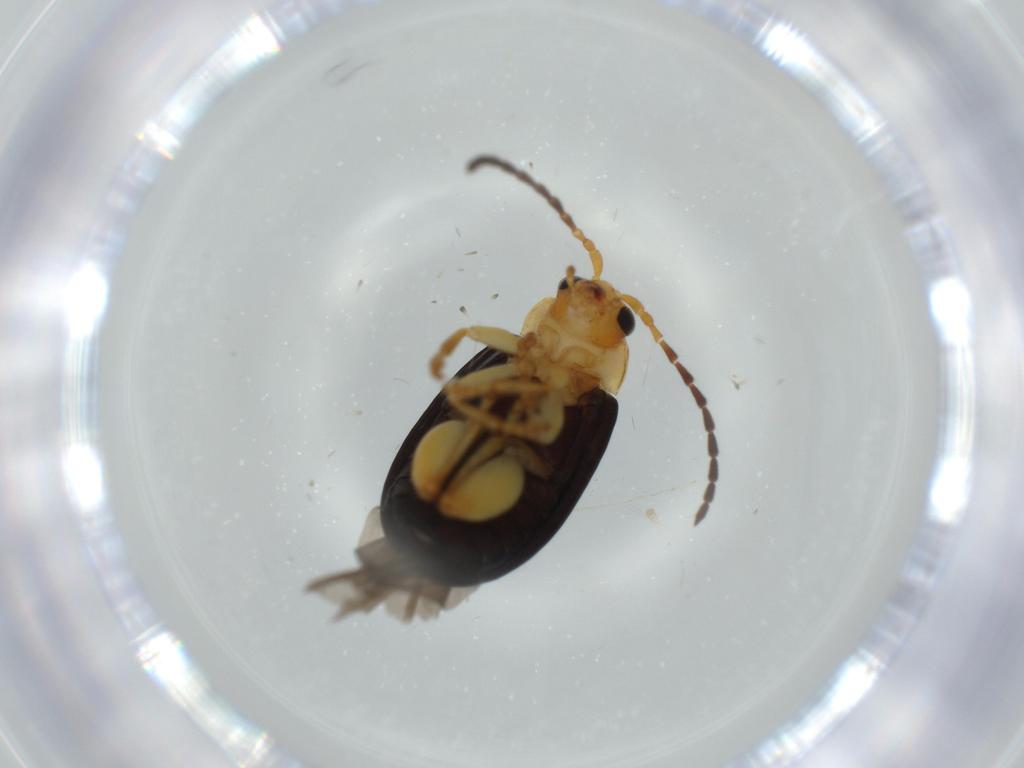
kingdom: Animalia
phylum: Arthropoda
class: Insecta
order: Coleoptera
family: Chrysomelidae
